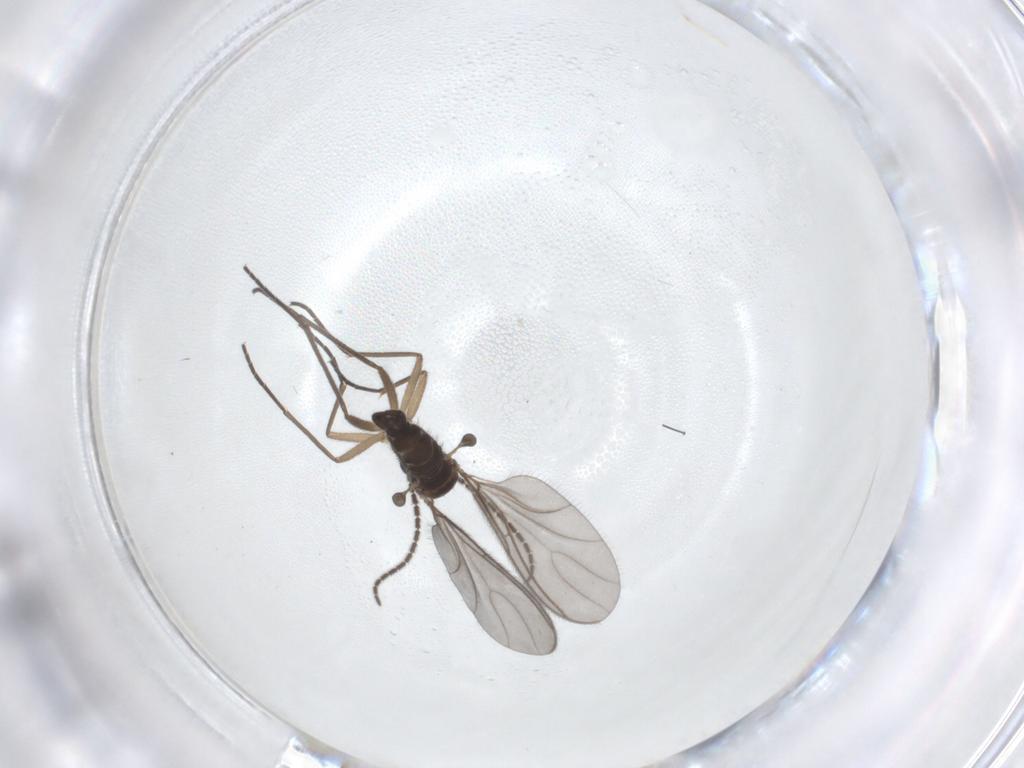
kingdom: Animalia
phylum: Arthropoda
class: Insecta
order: Diptera
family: Sciaridae
